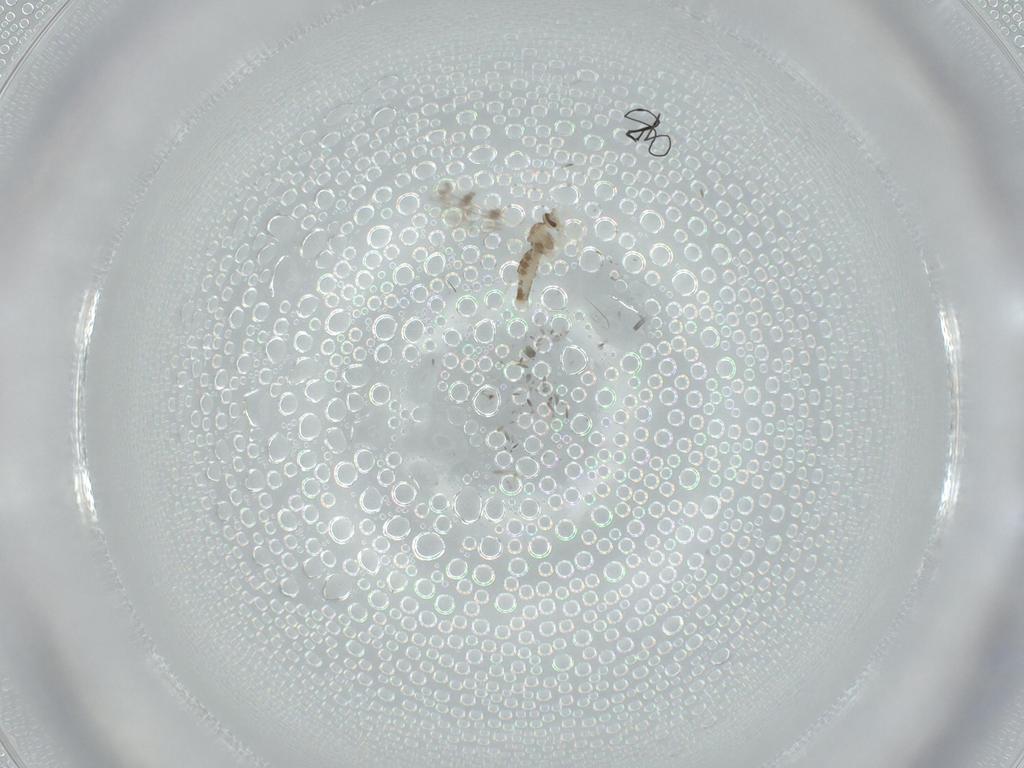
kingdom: Animalia
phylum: Arthropoda
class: Insecta
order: Diptera
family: Cecidomyiidae
